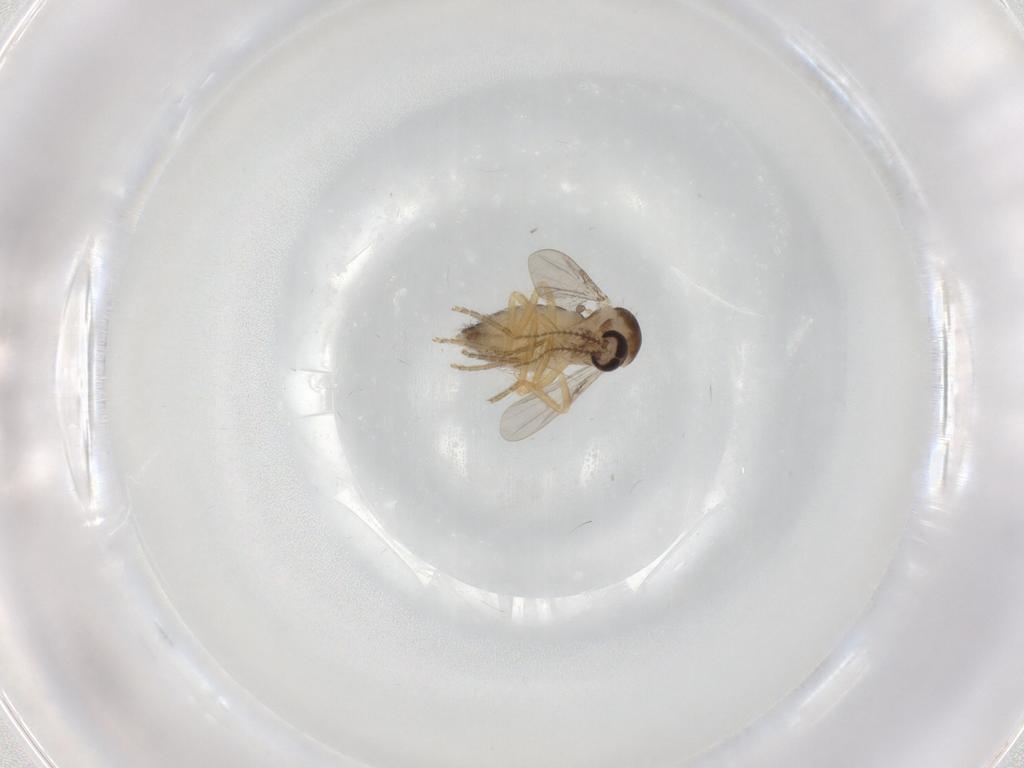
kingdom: Animalia
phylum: Arthropoda
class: Insecta
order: Diptera
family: Ceratopogonidae
